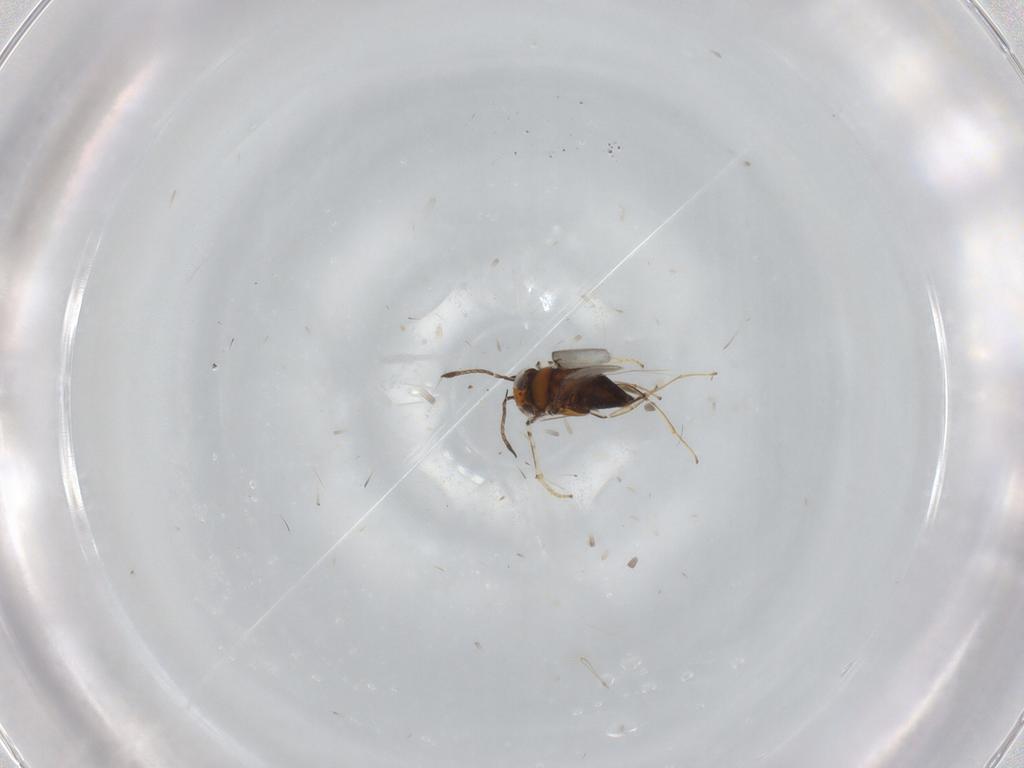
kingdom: Animalia
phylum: Arthropoda
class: Insecta
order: Hymenoptera
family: Encyrtidae
